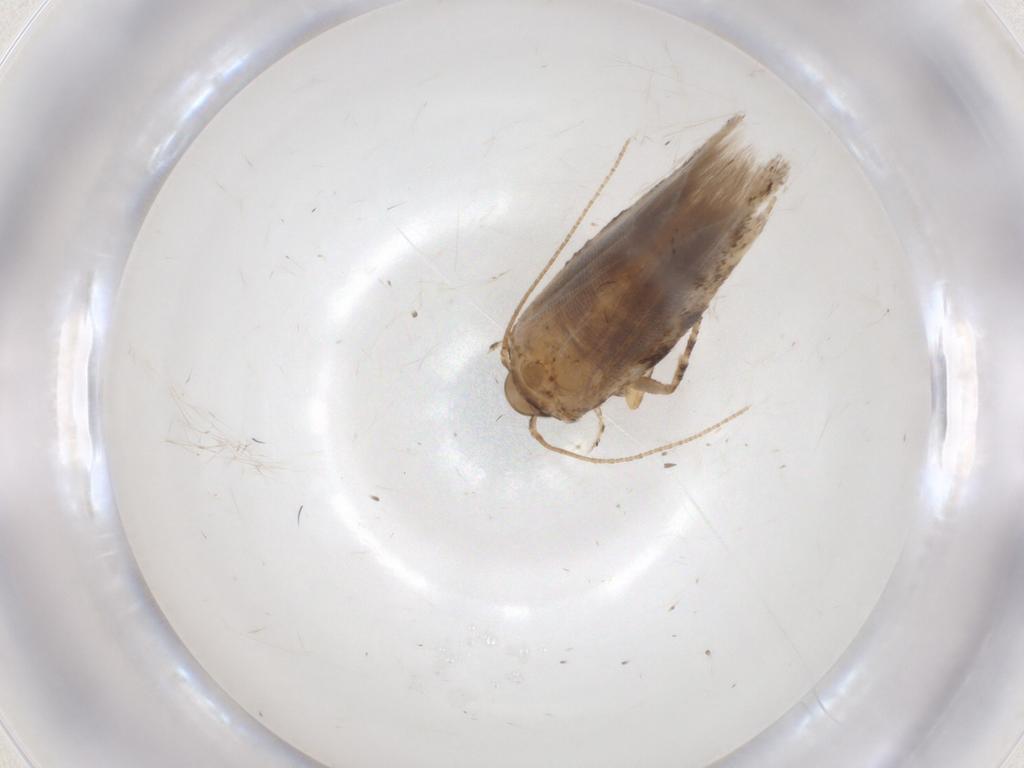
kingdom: Animalia
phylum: Arthropoda
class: Insecta
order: Lepidoptera
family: Gelechiidae
